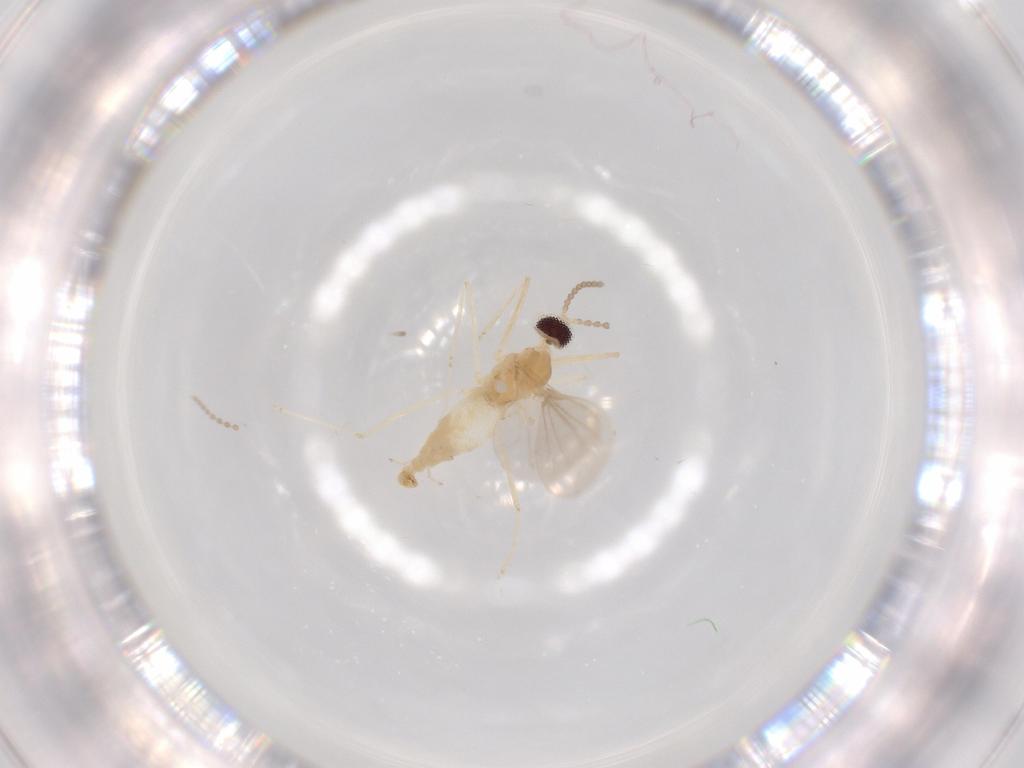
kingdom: Animalia
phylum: Arthropoda
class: Insecta
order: Diptera
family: Cecidomyiidae
